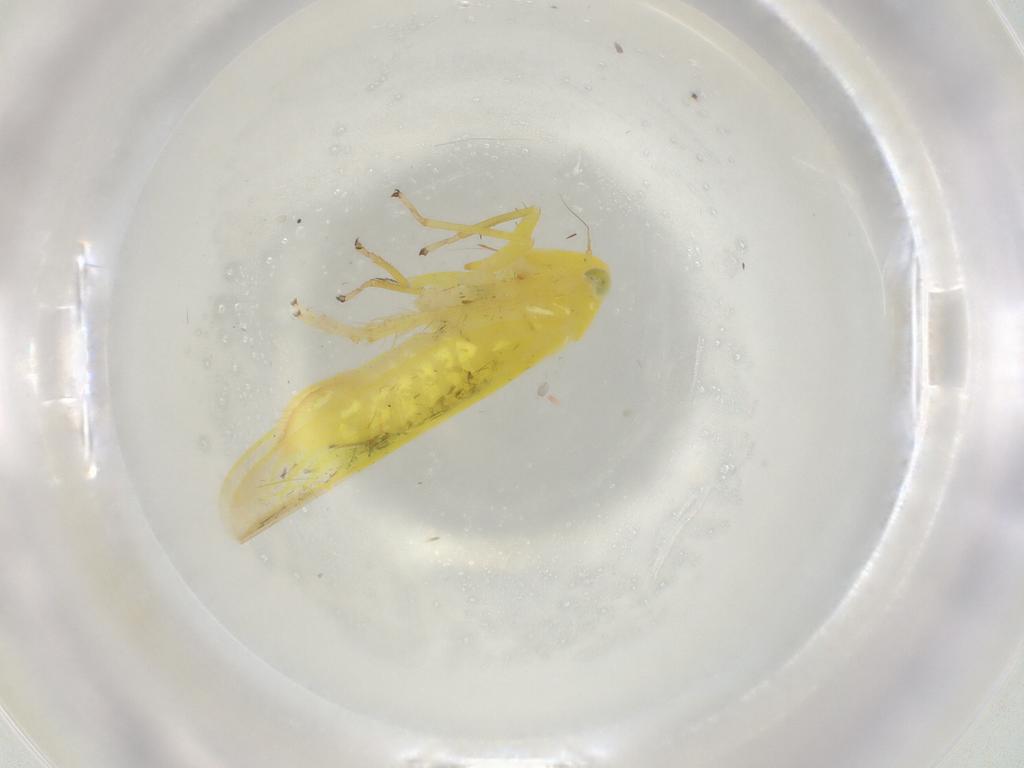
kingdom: Animalia
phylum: Arthropoda
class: Insecta
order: Hemiptera
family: Cicadellidae
